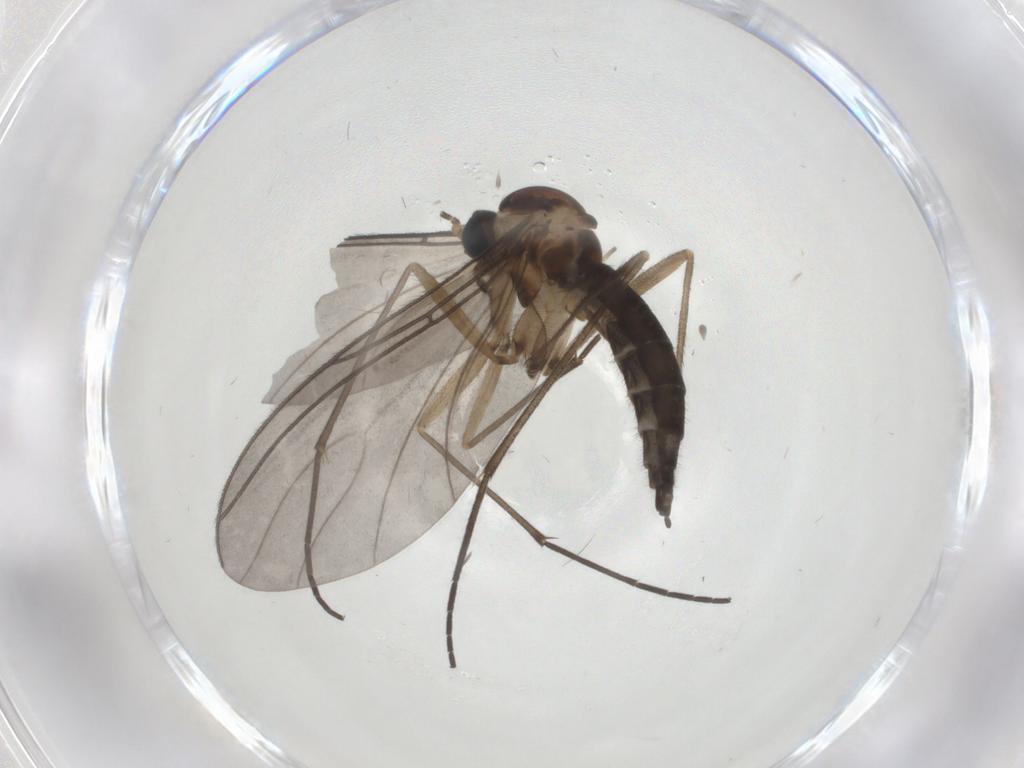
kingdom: Animalia
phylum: Arthropoda
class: Insecta
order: Diptera
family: Sciaridae
